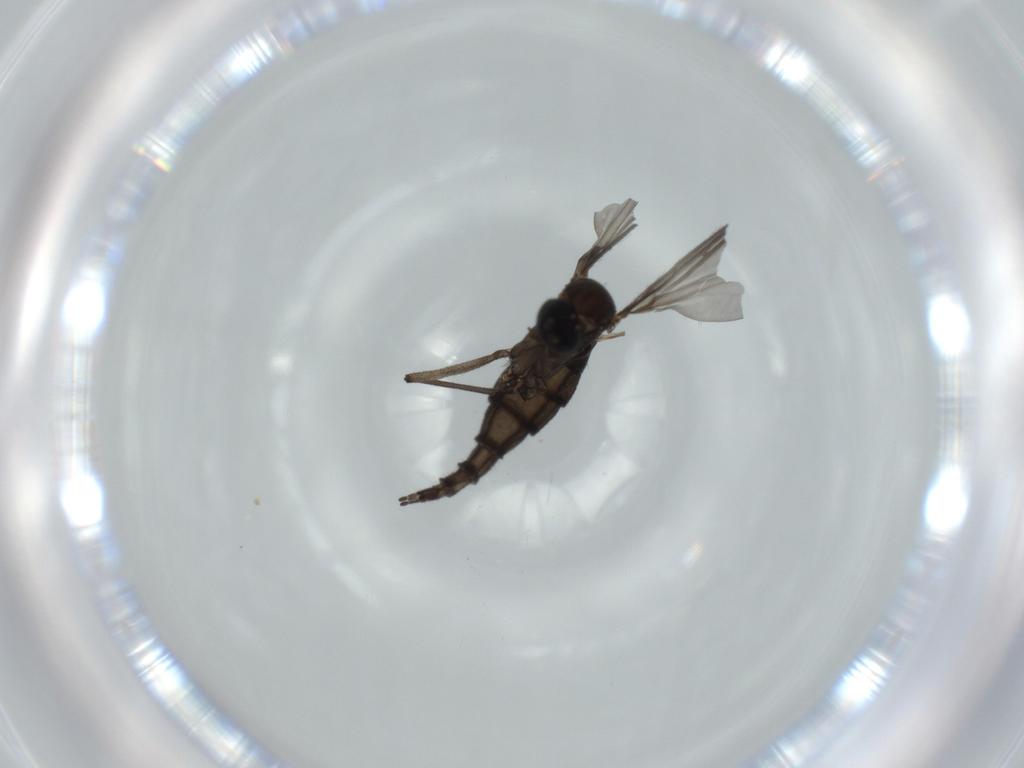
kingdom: Animalia
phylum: Arthropoda
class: Insecta
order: Diptera
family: Sciaridae
